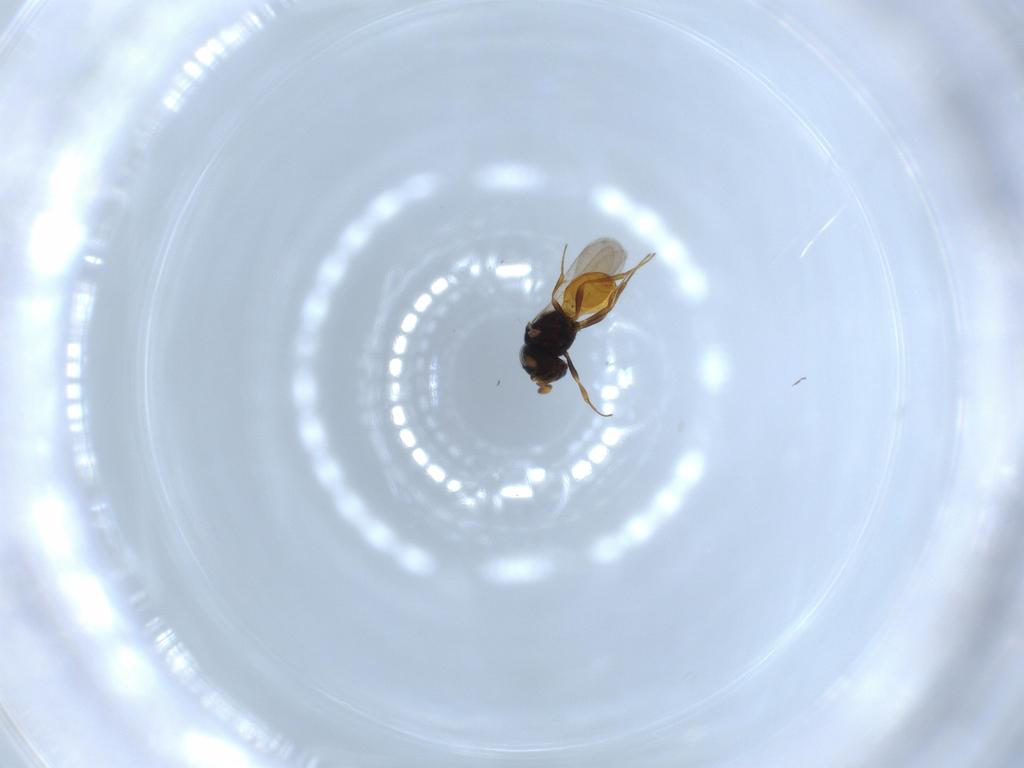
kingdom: Animalia
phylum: Arthropoda
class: Insecta
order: Hymenoptera
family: Scelionidae
